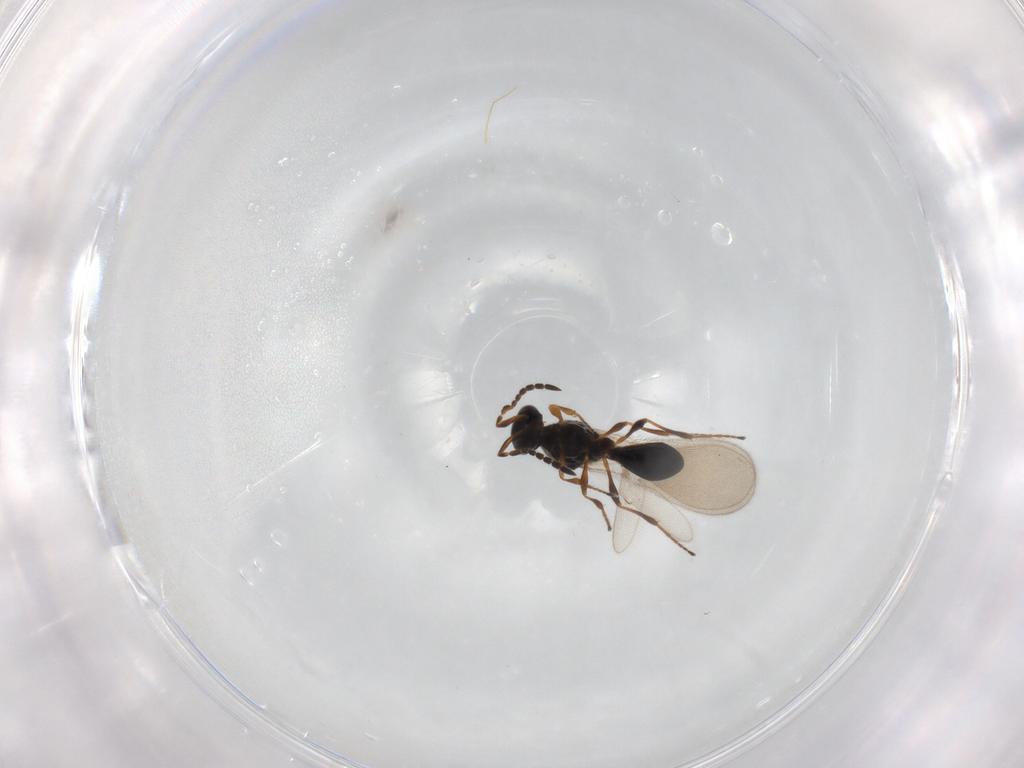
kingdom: Animalia
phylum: Arthropoda
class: Insecta
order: Hymenoptera
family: Platygastridae
